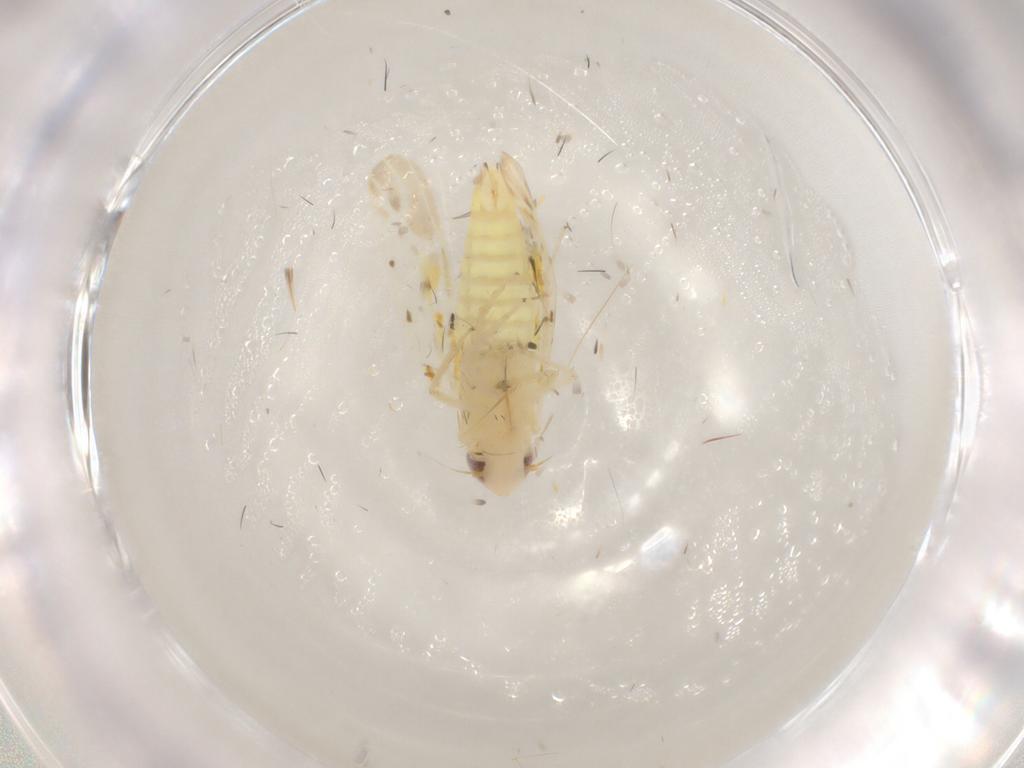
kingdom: Animalia
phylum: Arthropoda
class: Insecta
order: Hemiptera
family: Cicadellidae
